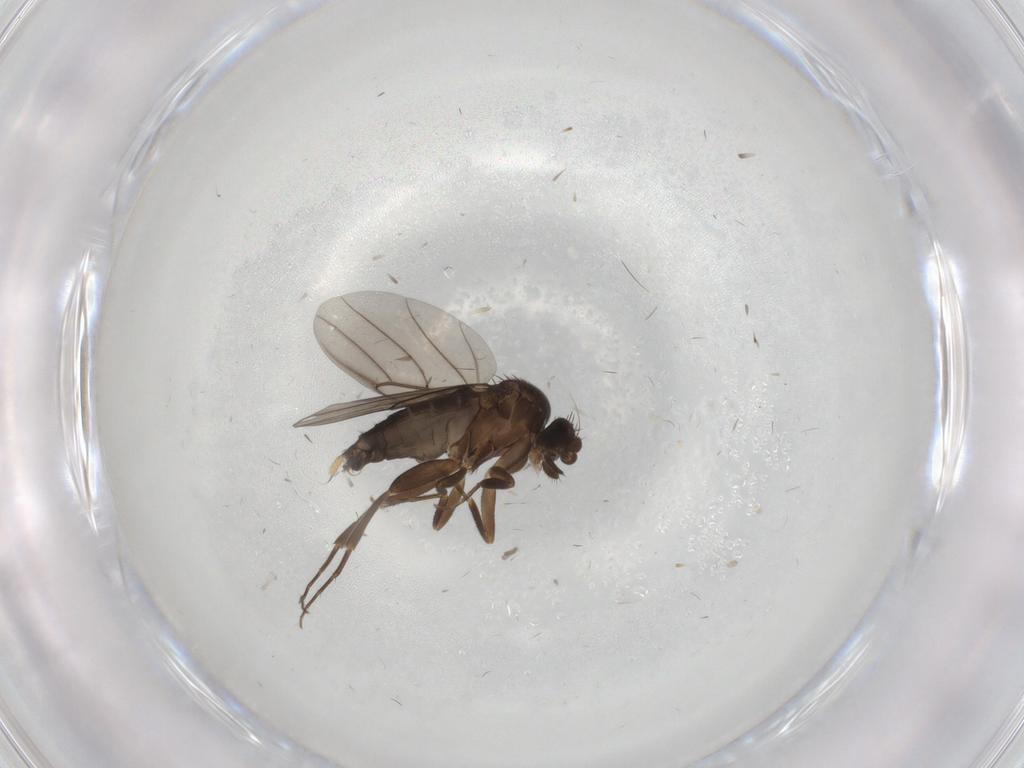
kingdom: Animalia
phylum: Arthropoda
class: Insecta
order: Diptera
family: Phoridae
